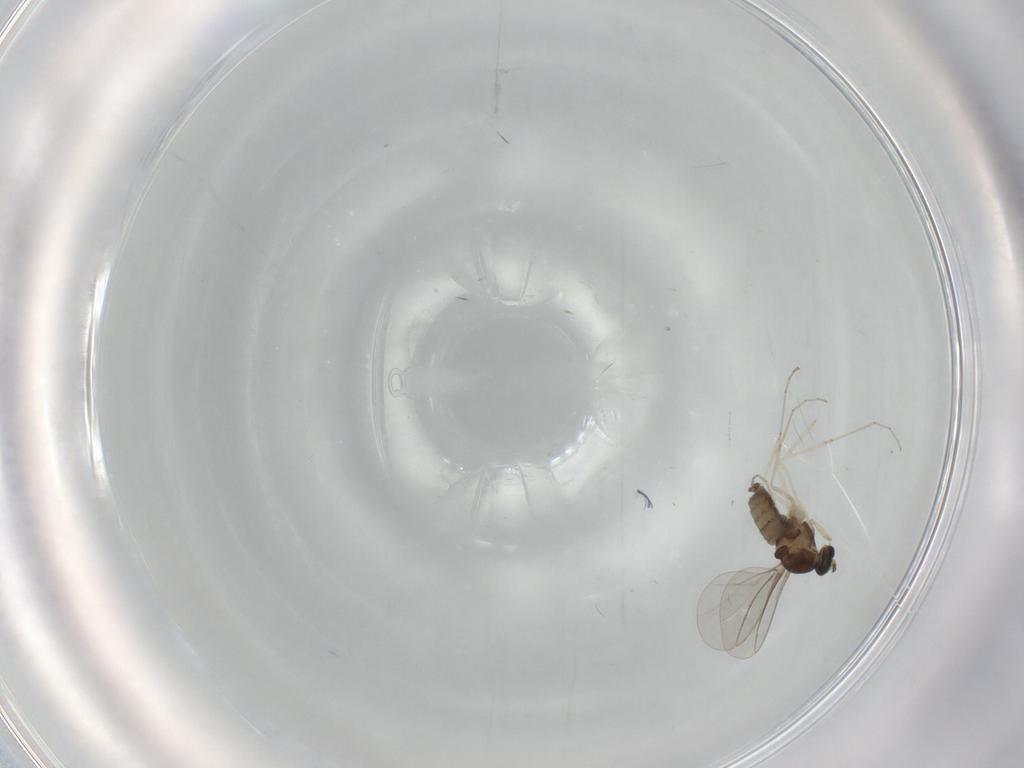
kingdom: Animalia
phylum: Arthropoda
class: Insecta
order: Diptera
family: Cecidomyiidae
